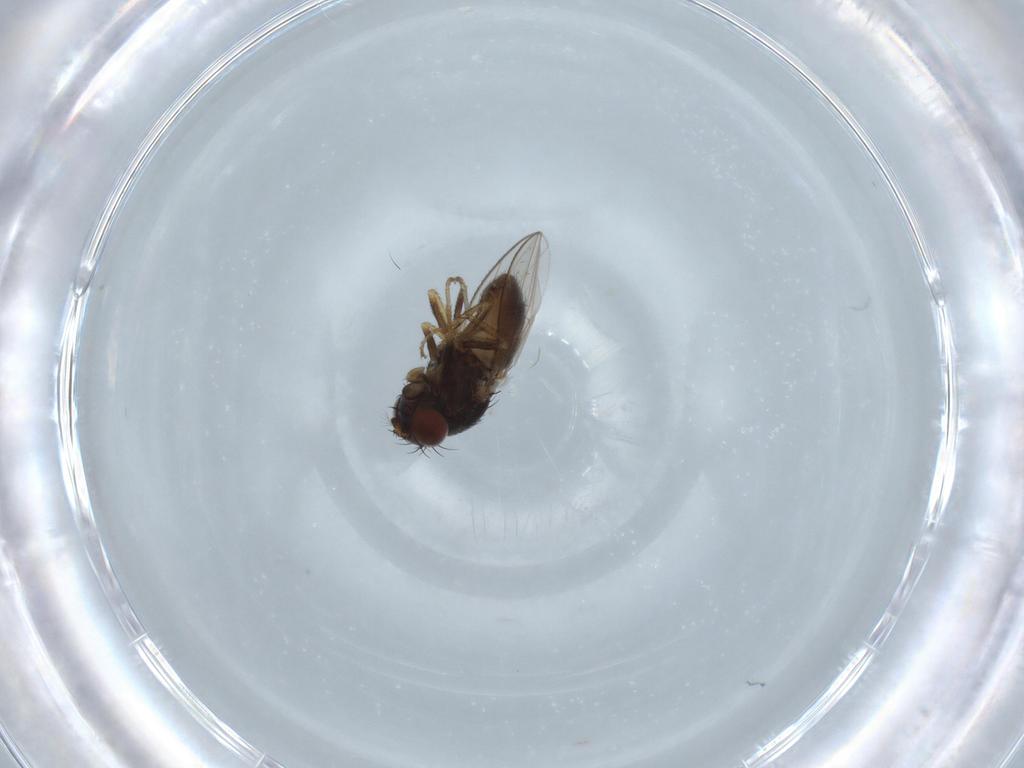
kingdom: Animalia
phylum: Arthropoda
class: Insecta
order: Diptera
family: Ephydridae
